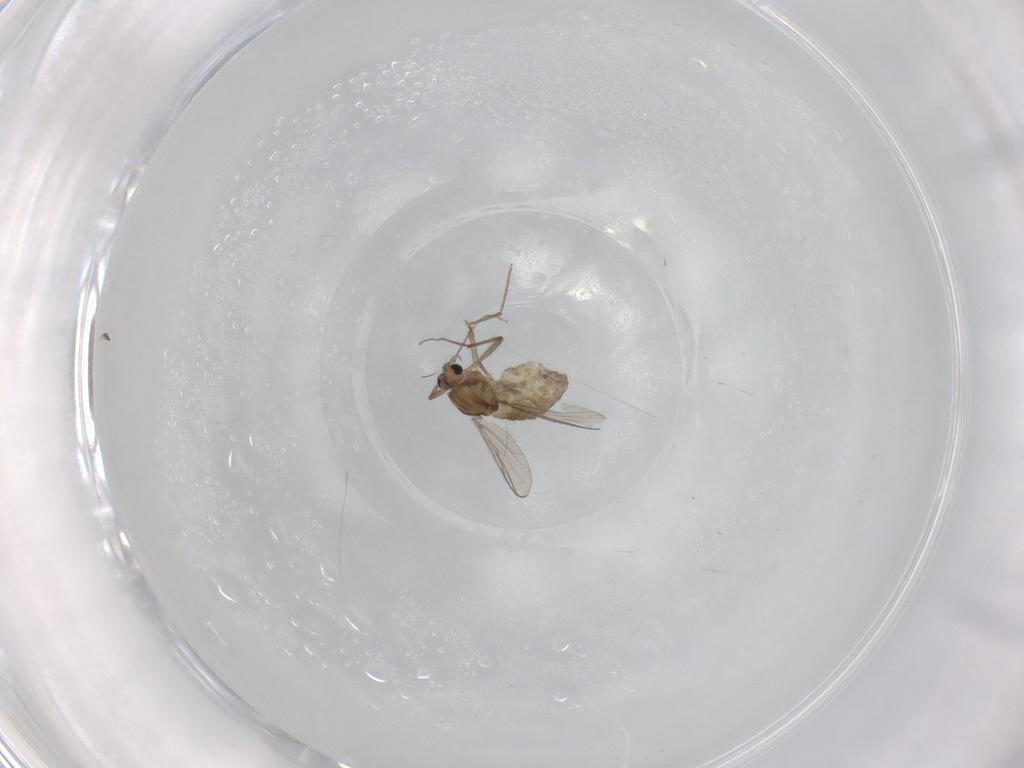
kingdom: Animalia
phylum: Arthropoda
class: Insecta
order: Diptera
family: Chironomidae
